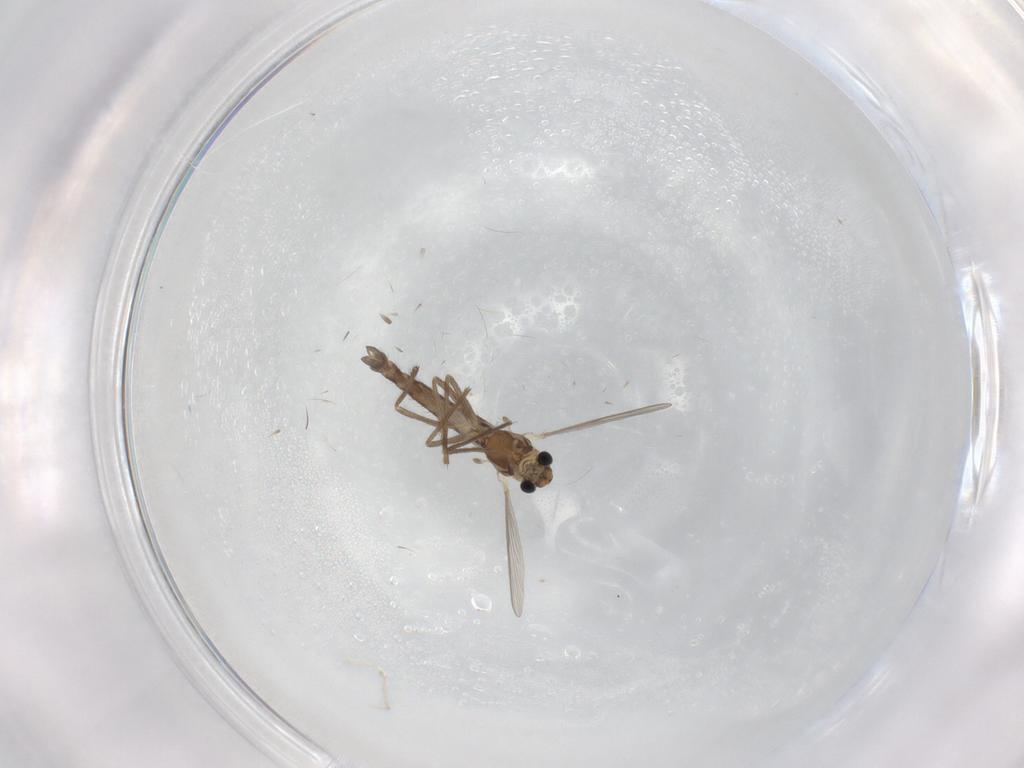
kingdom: Animalia
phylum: Arthropoda
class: Insecta
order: Diptera
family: Chironomidae
